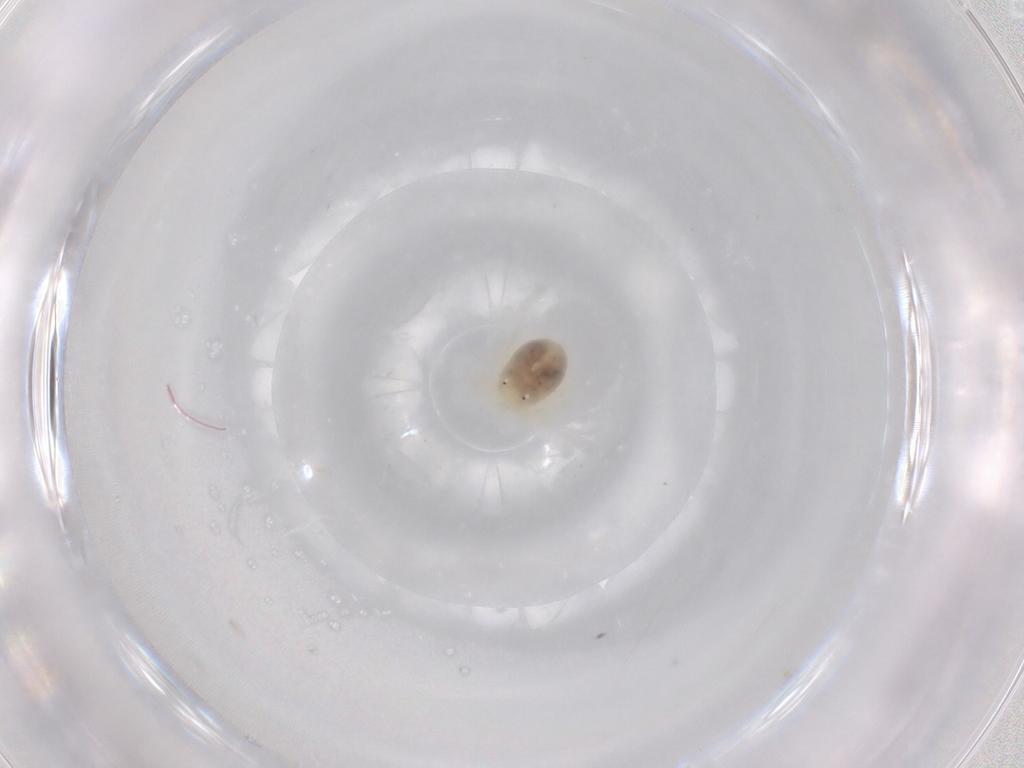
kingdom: Animalia
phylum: Arthropoda
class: Arachnida
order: Trombidiformes
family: Anystidae
